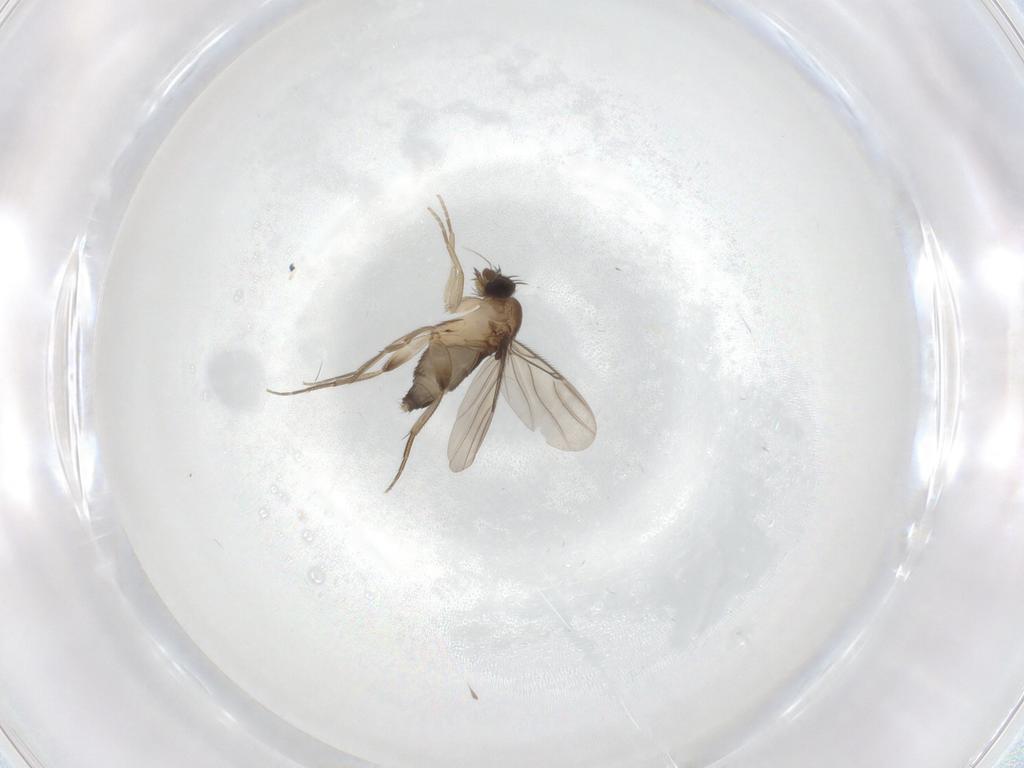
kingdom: Animalia
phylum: Arthropoda
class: Insecta
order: Diptera
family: Phoridae
